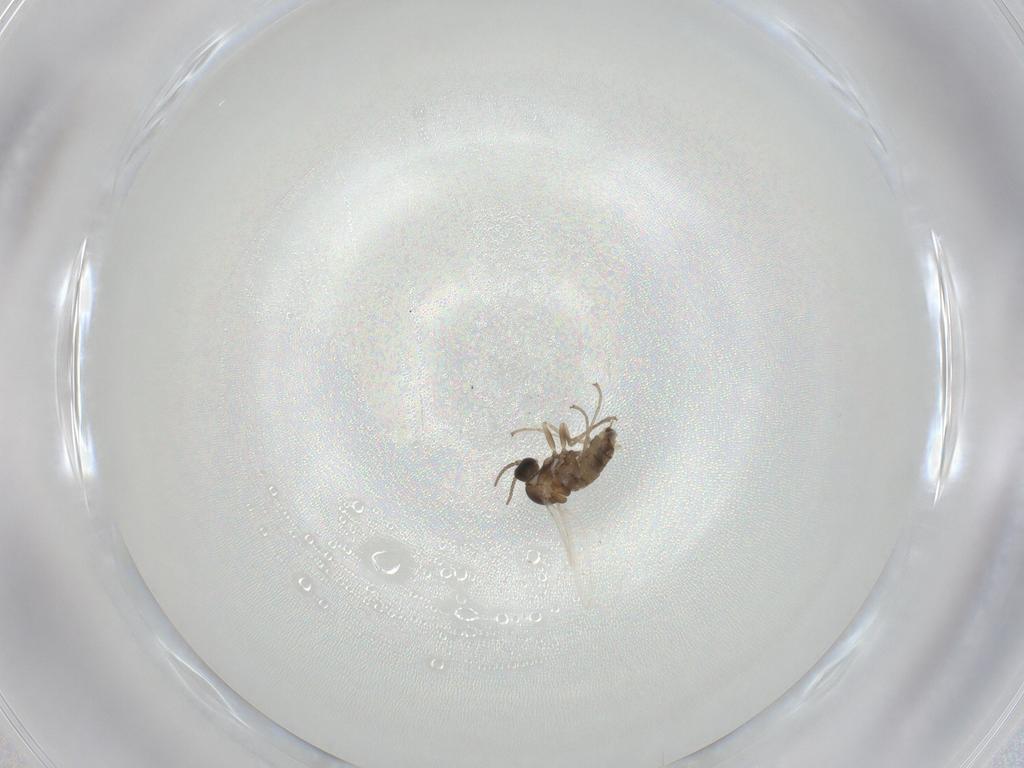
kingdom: Animalia
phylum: Arthropoda
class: Insecta
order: Diptera
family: Cecidomyiidae
